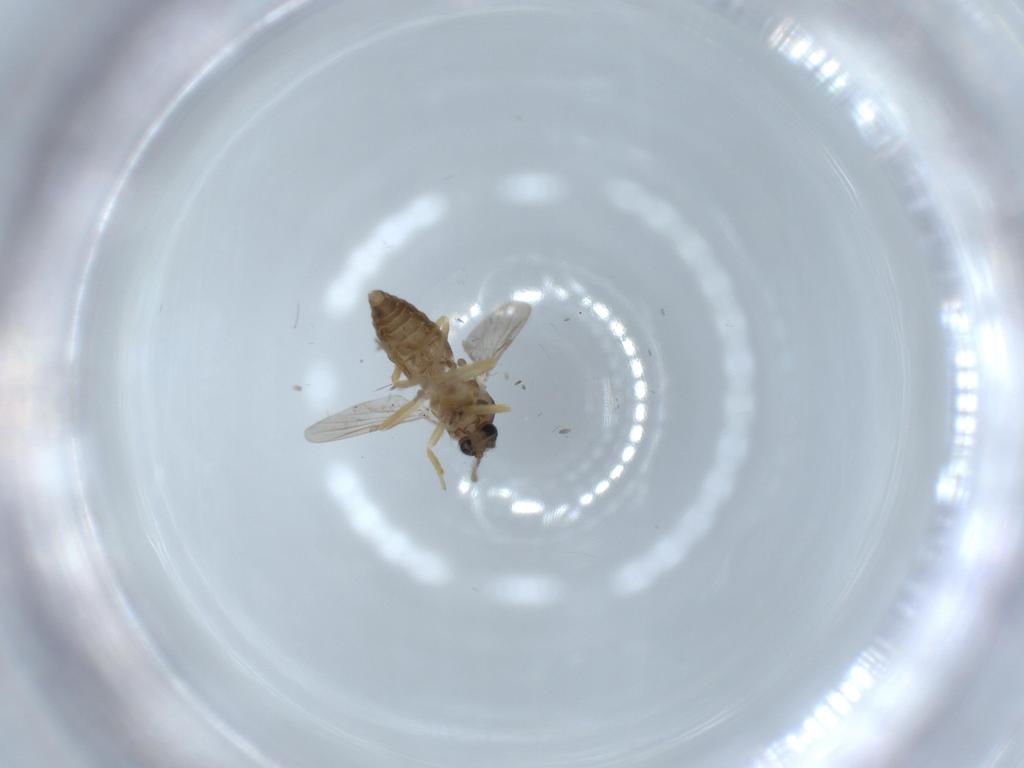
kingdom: Animalia
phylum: Arthropoda
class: Insecta
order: Diptera
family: Ceratopogonidae
